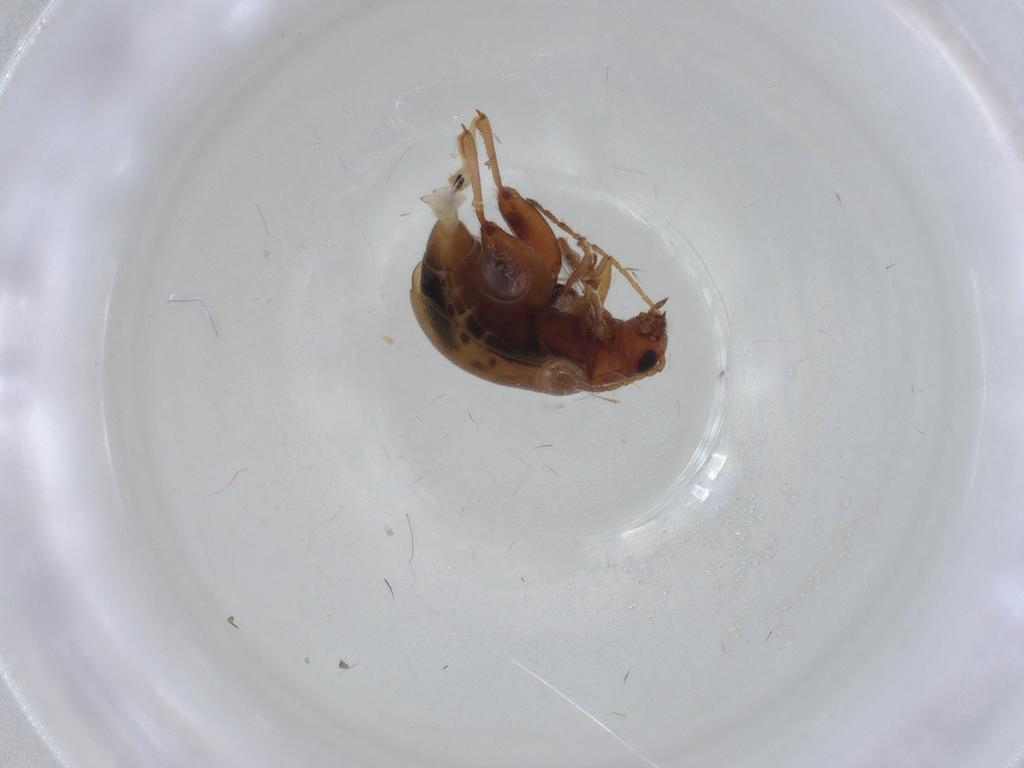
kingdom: Animalia
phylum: Arthropoda
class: Insecta
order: Coleoptera
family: Chrysomelidae
